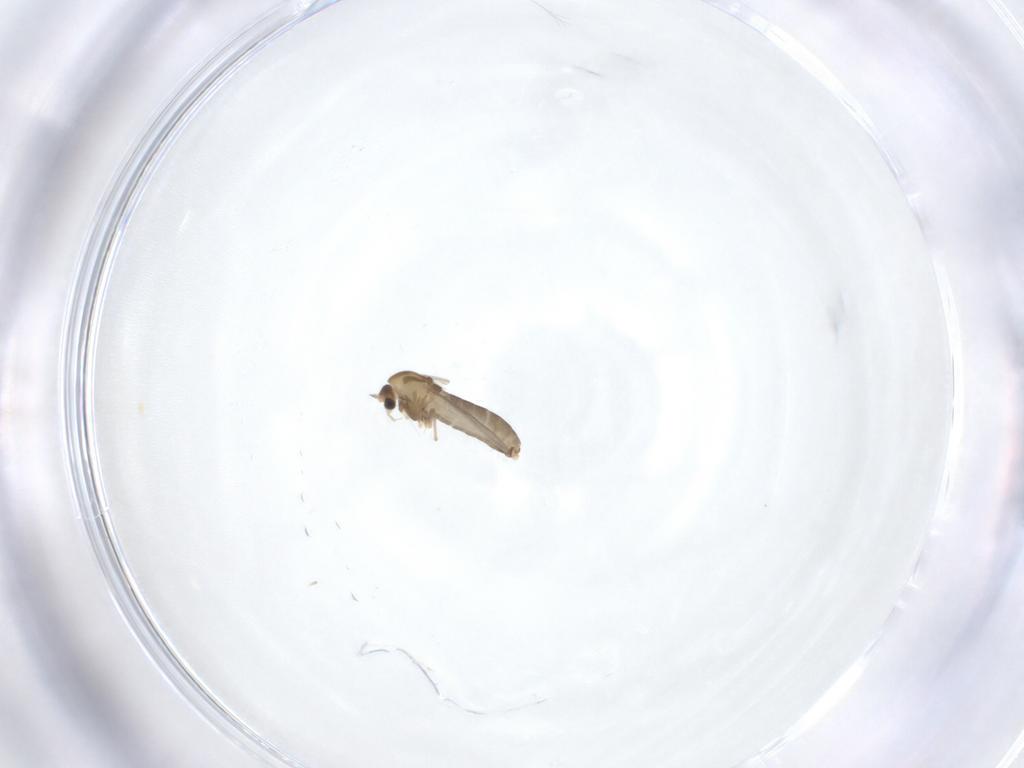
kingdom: Animalia
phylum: Arthropoda
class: Insecta
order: Diptera
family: Chironomidae
